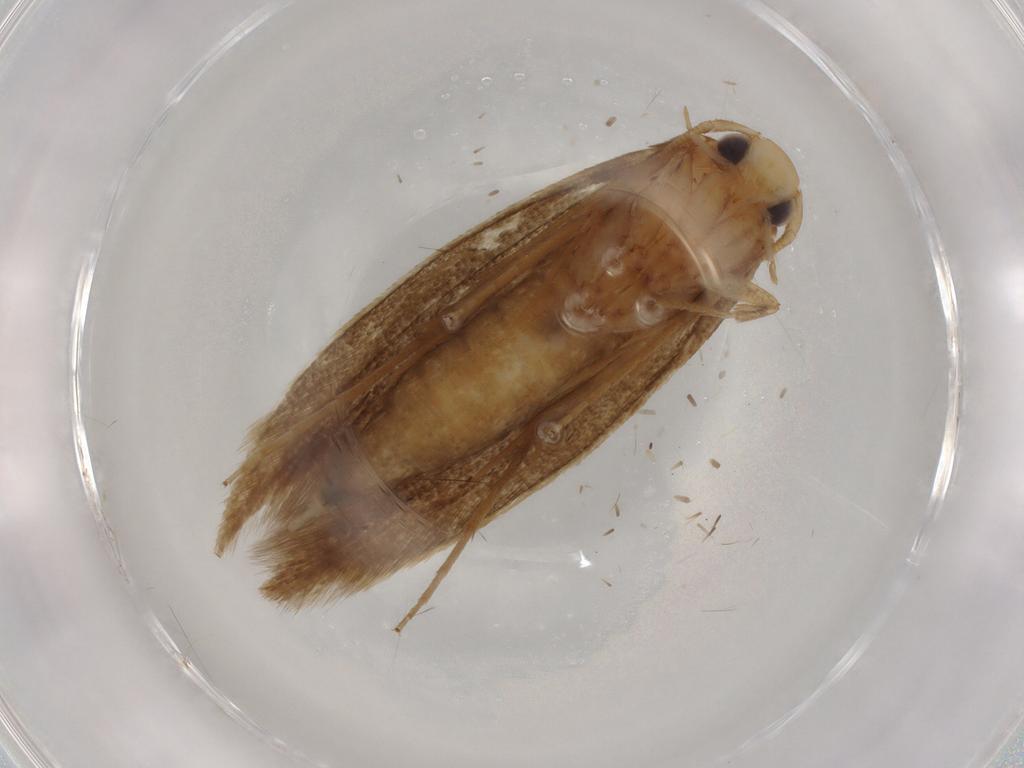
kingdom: Animalia
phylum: Arthropoda
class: Insecta
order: Lepidoptera
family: Tineidae
